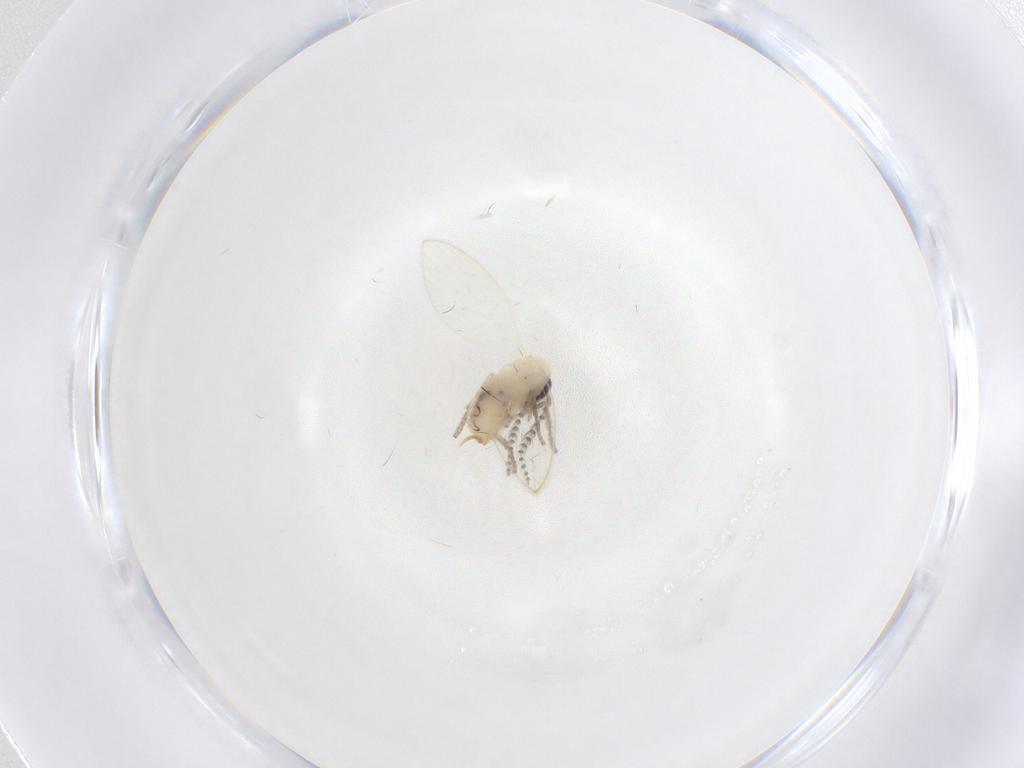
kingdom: Animalia
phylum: Arthropoda
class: Insecta
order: Diptera
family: Psychodidae
